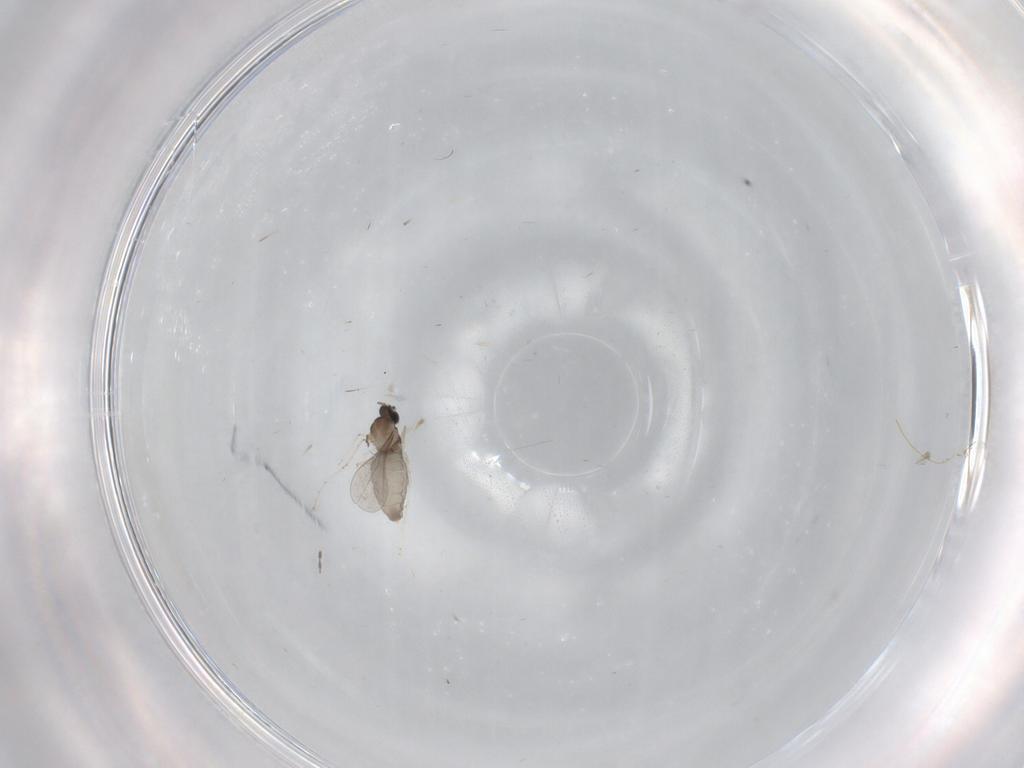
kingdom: Animalia
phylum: Arthropoda
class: Insecta
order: Diptera
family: Cecidomyiidae
